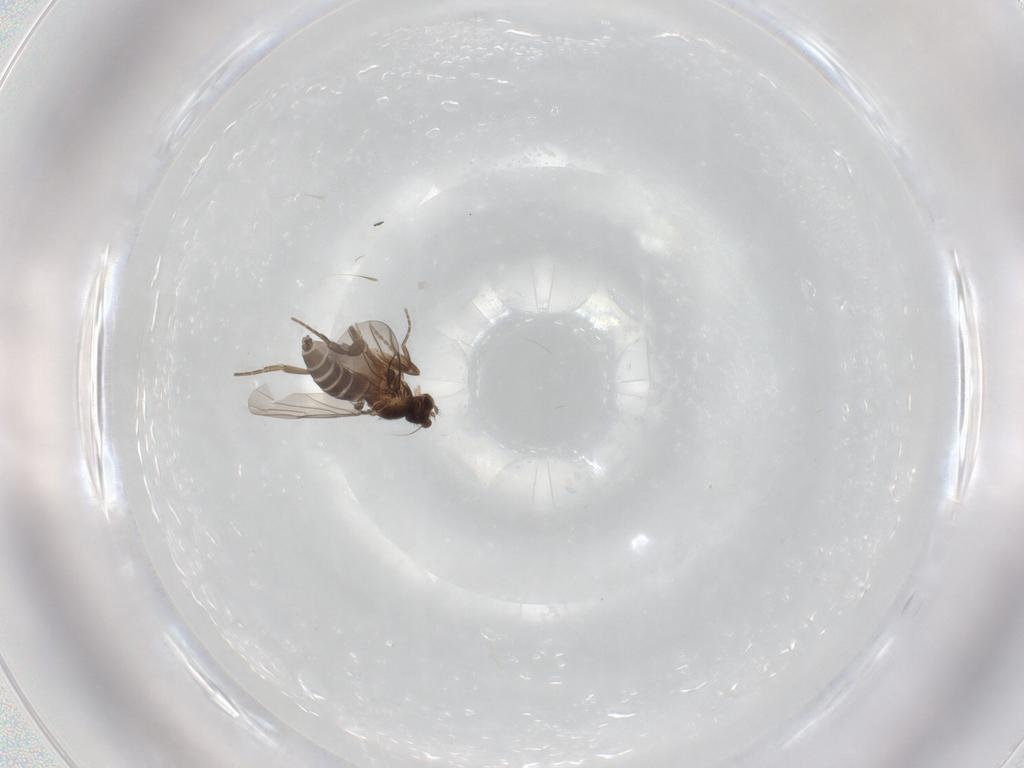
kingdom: Animalia
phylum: Arthropoda
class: Insecta
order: Diptera
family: Phoridae
